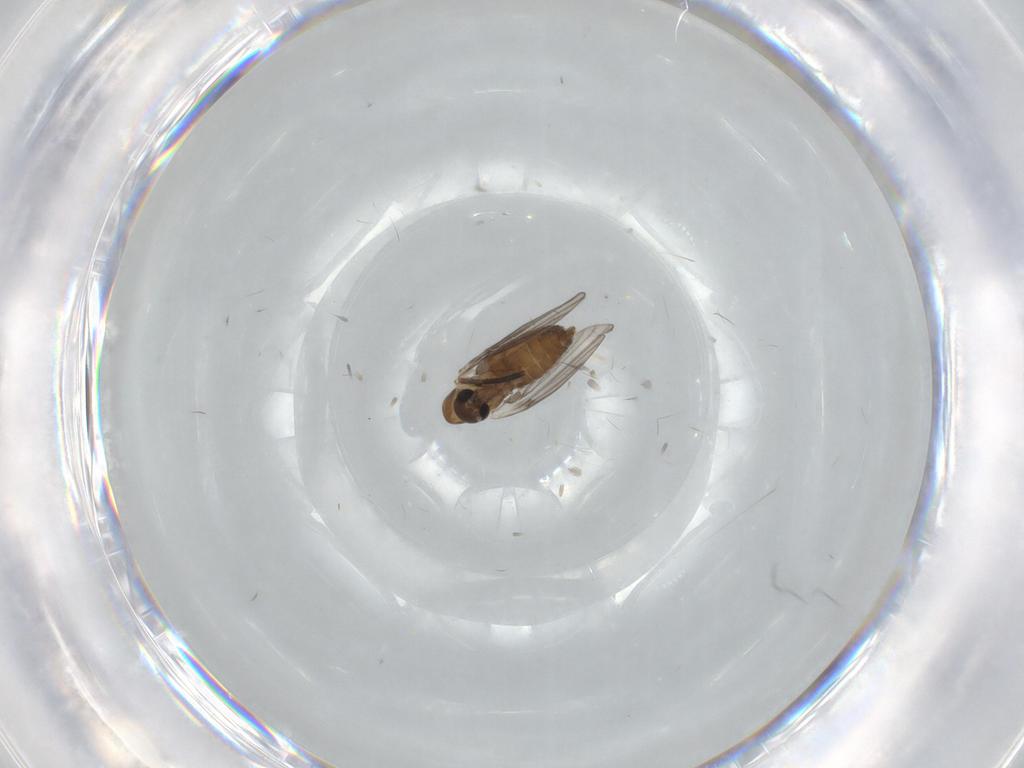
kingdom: Animalia
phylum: Arthropoda
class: Insecta
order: Diptera
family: Psychodidae
